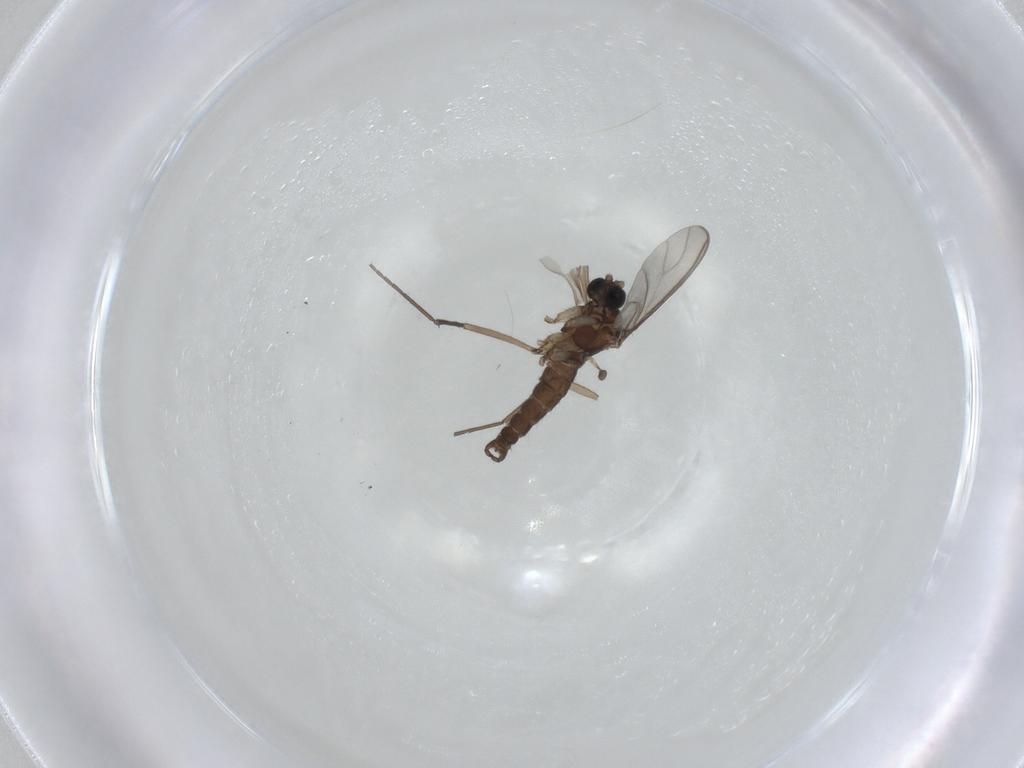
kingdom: Animalia
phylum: Arthropoda
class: Insecta
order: Diptera
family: Sciaridae
